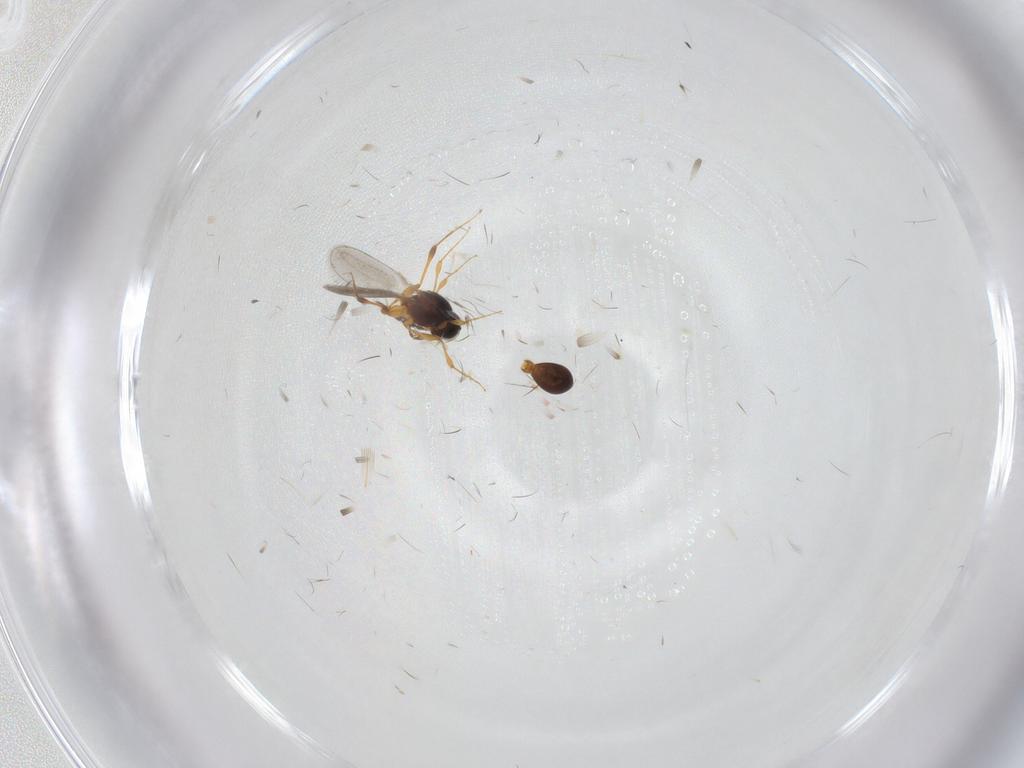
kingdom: Animalia
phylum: Arthropoda
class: Insecta
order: Hymenoptera
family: Platygastridae
